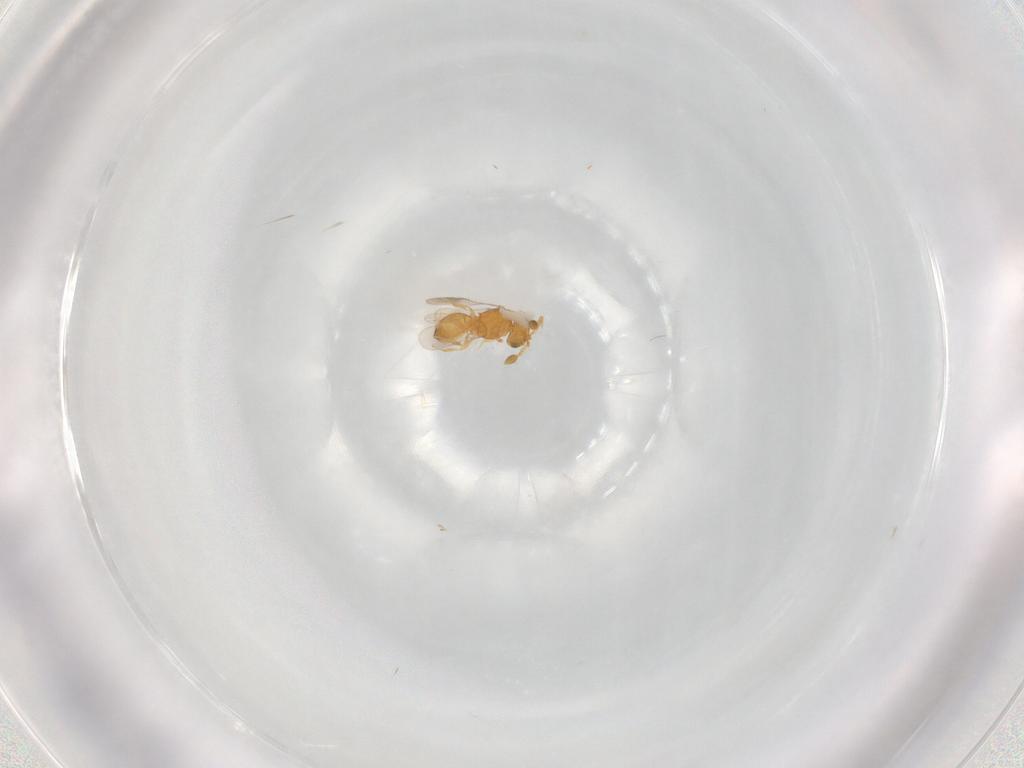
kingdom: Animalia
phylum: Arthropoda
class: Insecta
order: Hymenoptera
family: Scelionidae
